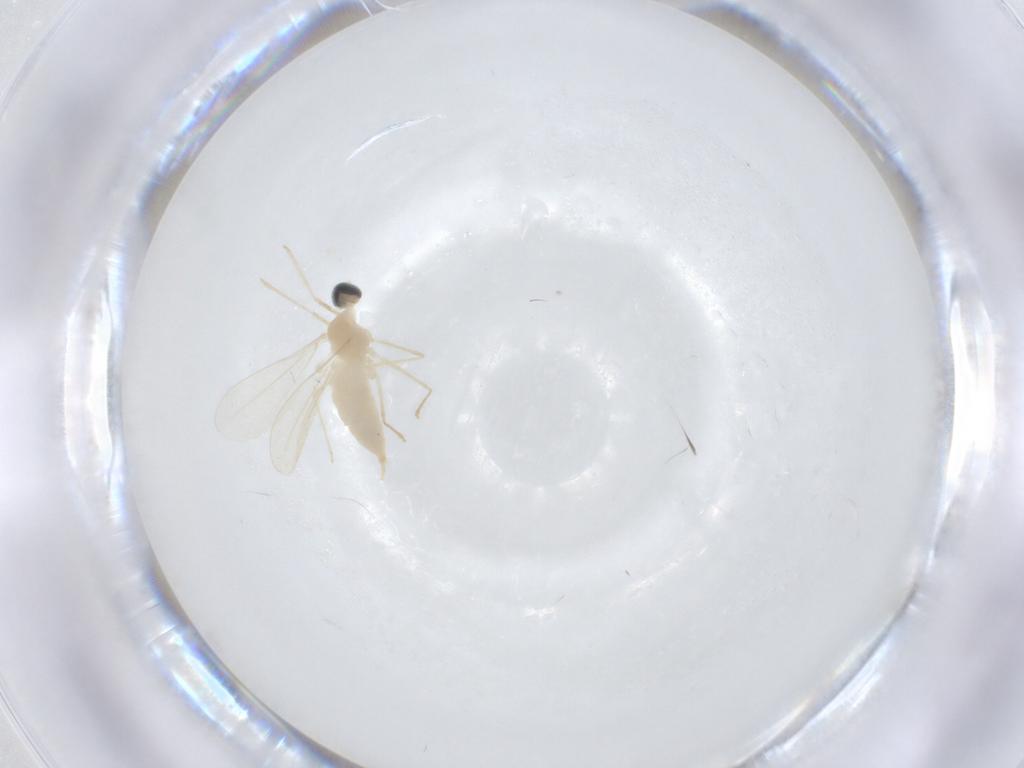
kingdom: Animalia
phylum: Arthropoda
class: Insecta
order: Diptera
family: Cecidomyiidae
